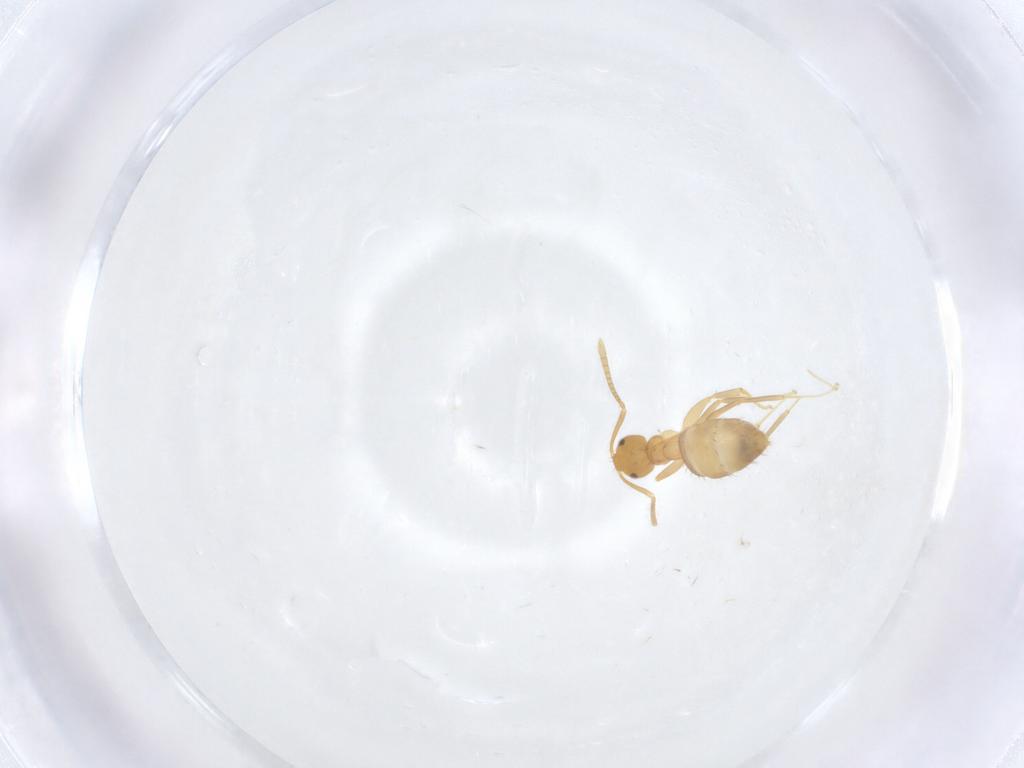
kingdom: Animalia
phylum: Arthropoda
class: Insecta
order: Hymenoptera
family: Formicidae
